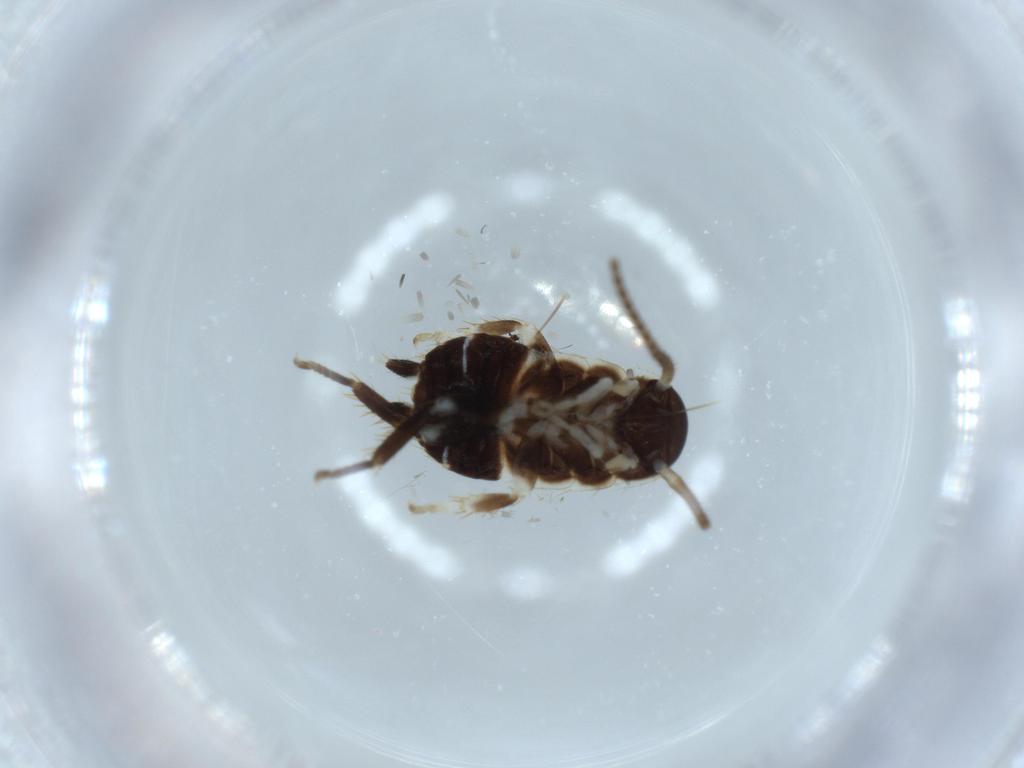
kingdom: Animalia
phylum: Arthropoda
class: Insecta
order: Blattodea
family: Ectobiidae
